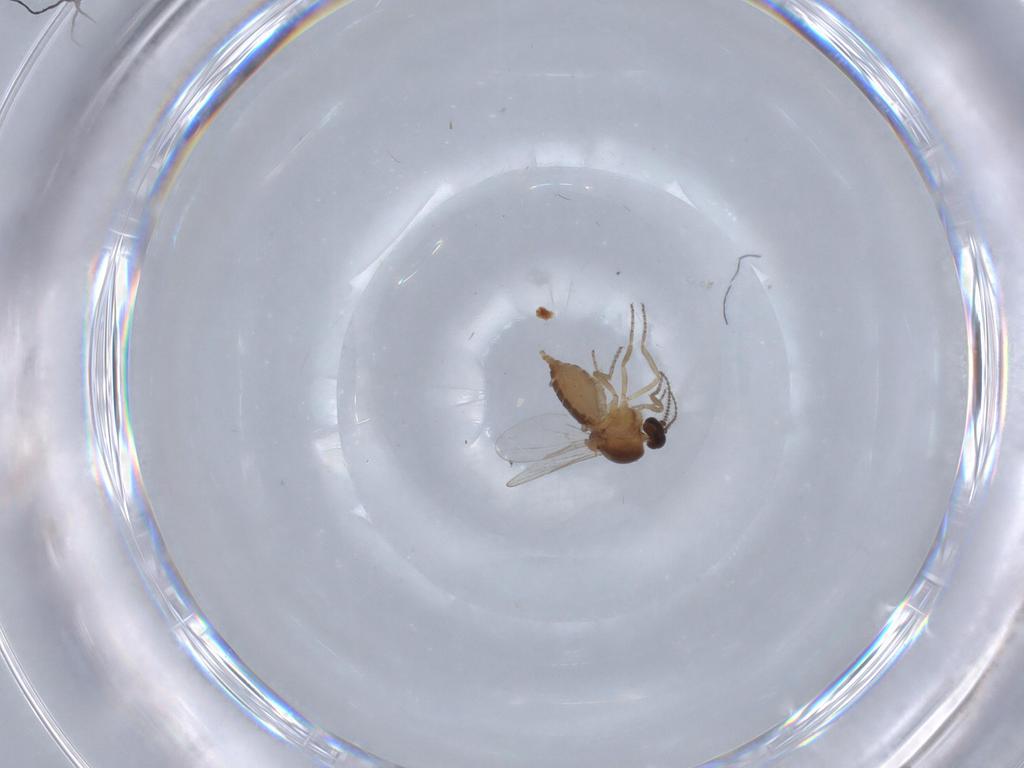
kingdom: Animalia
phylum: Arthropoda
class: Insecta
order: Diptera
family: Ceratopogonidae
